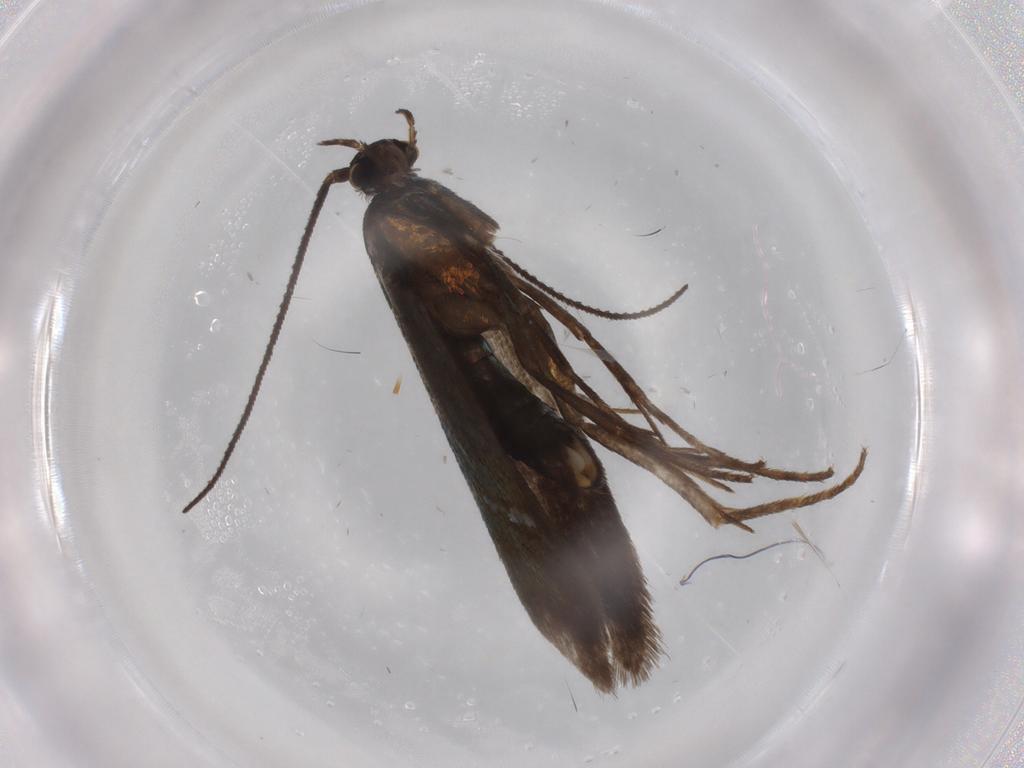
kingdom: Animalia
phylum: Arthropoda
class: Insecta
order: Lepidoptera
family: Argyresthiidae
